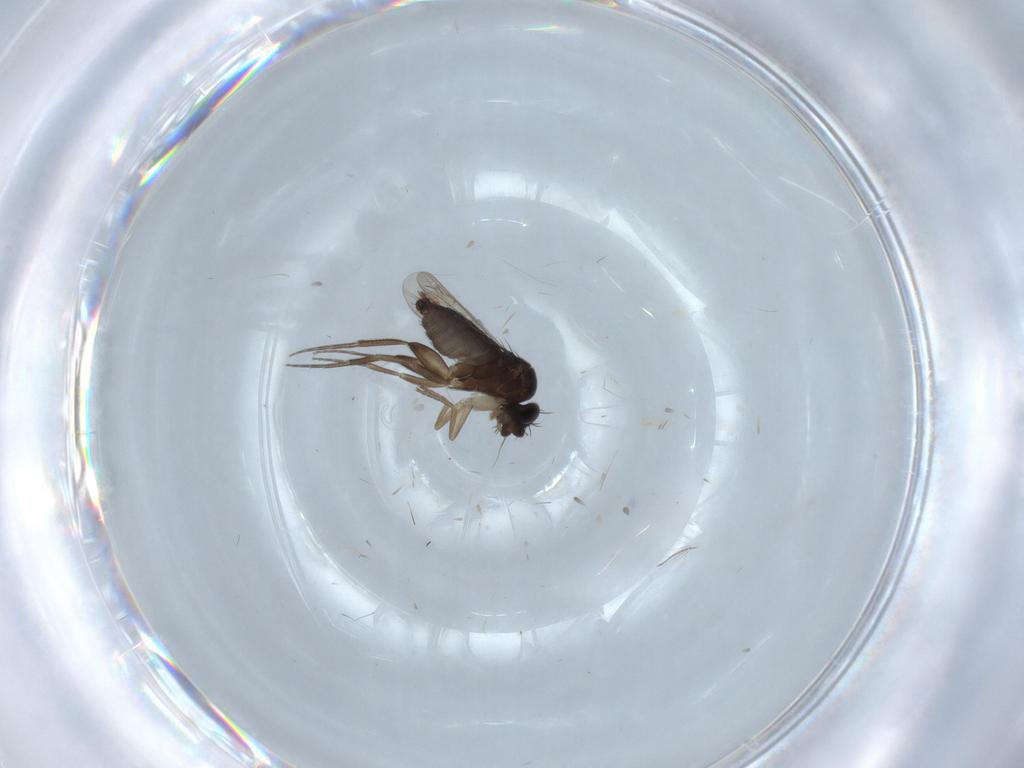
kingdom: Animalia
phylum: Arthropoda
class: Insecta
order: Diptera
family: Phoridae
